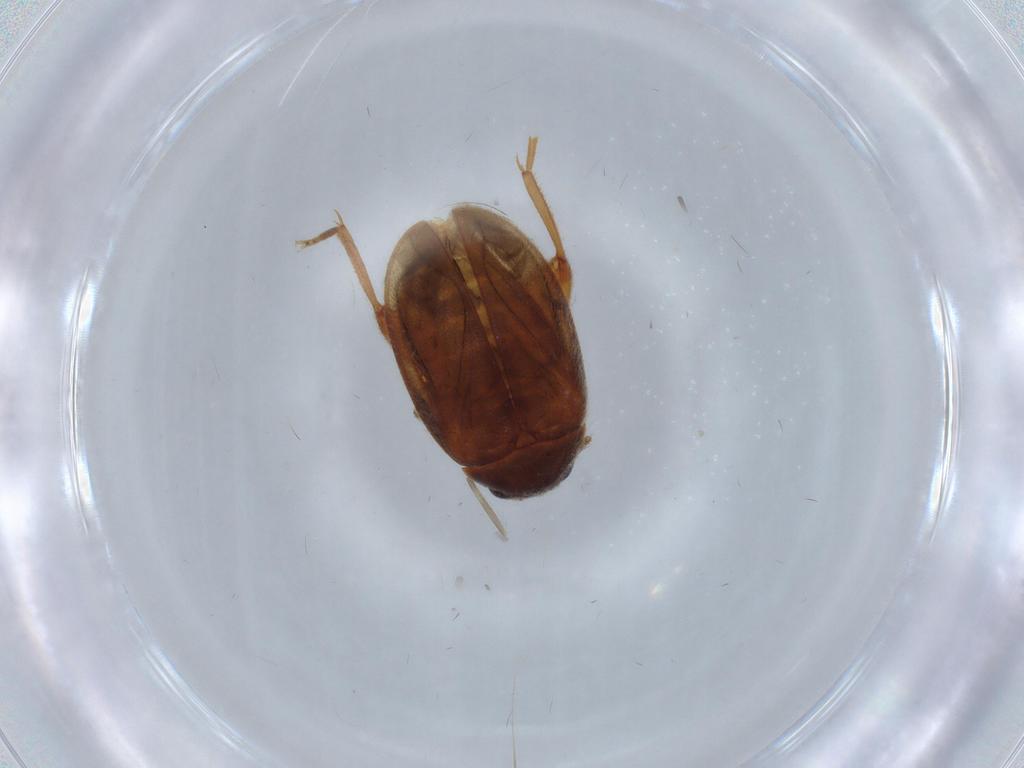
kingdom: Animalia
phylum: Arthropoda
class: Insecta
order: Coleoptera
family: Scirtidae
